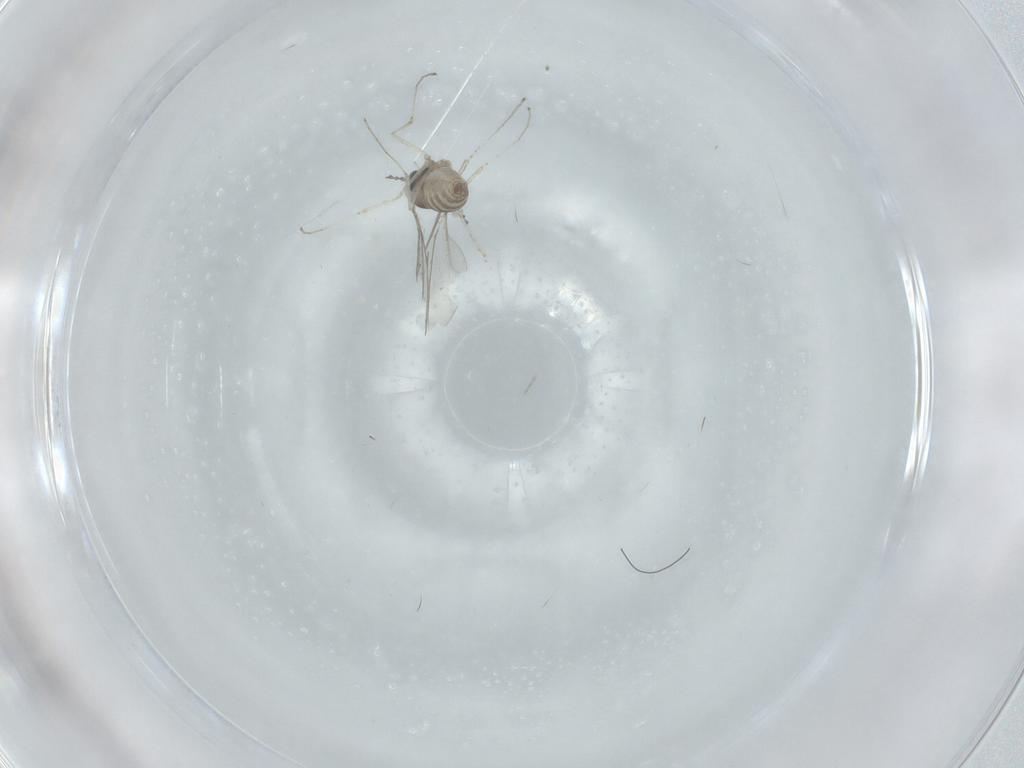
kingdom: Animalia
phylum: Arthropoda
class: Insecta
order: Diptera
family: Cecidomyiidae
